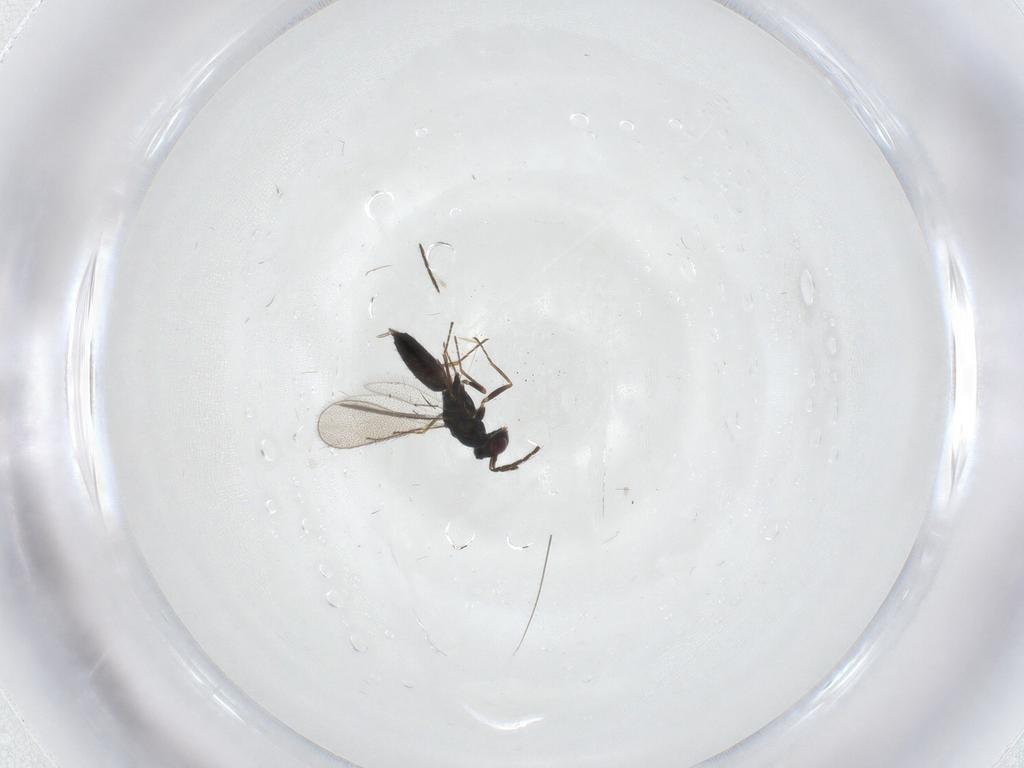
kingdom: Animalia
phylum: Arthropoda
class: Insecta
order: Hymenoptera
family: Eulophidae
